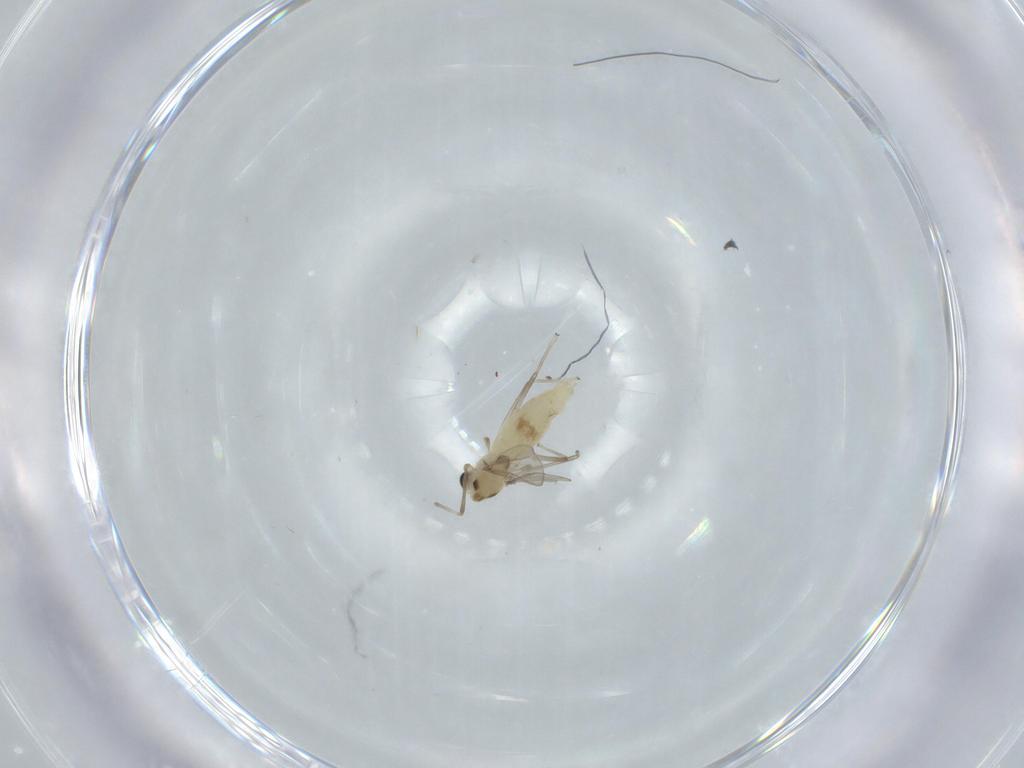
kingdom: Animalia
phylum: Arthropoda
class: Insecta
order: Diptera
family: Chironomidae
